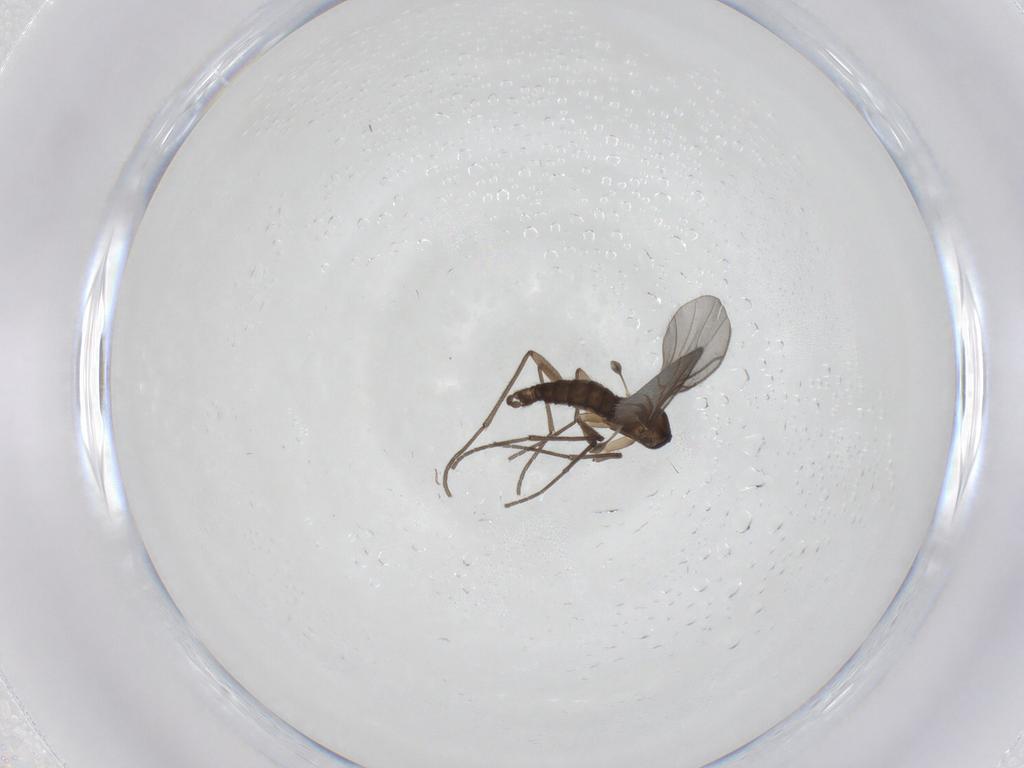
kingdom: Animalia
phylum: Arthropoda
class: Insecta
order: Diptera
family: Sciaridae
